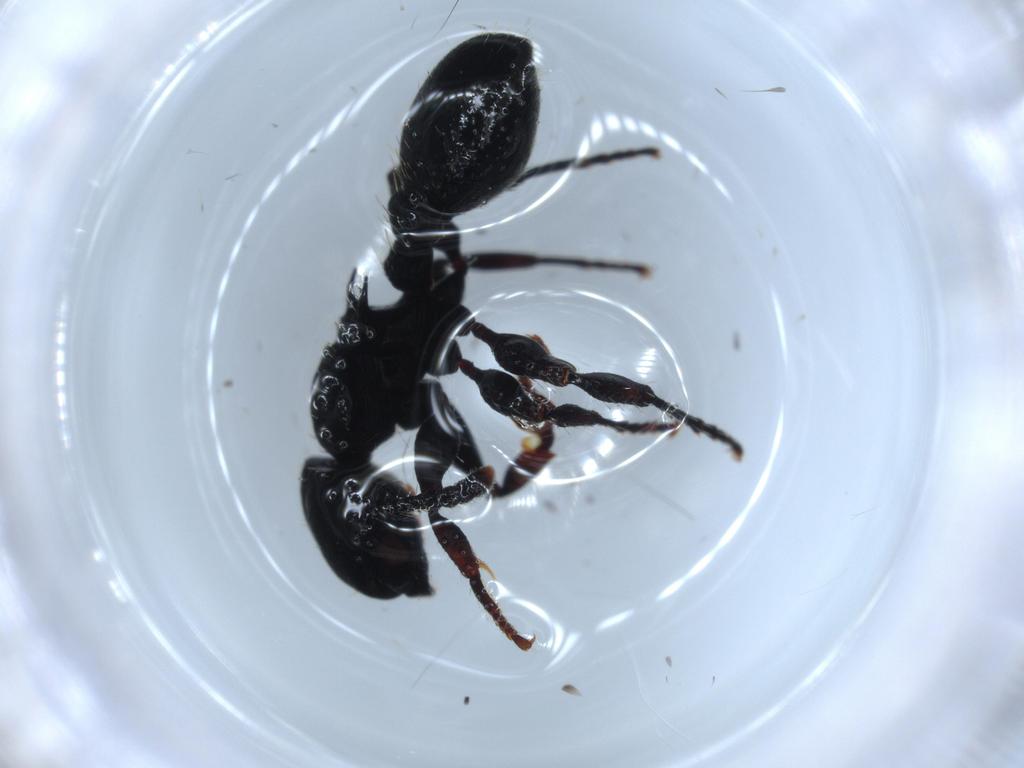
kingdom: Animalia
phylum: Arthropoda
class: Insecta
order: Hymenoptera
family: Formicidae
